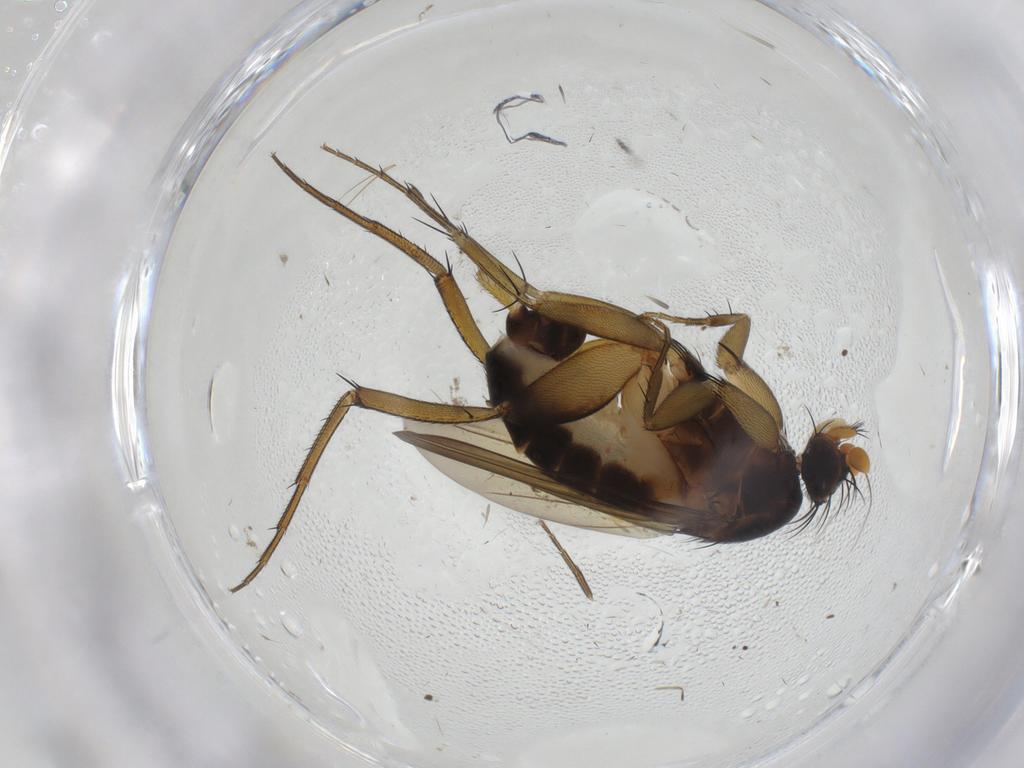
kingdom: Animalia
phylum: Arthropoda
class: Insecta
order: Diptera
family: Phoridae
